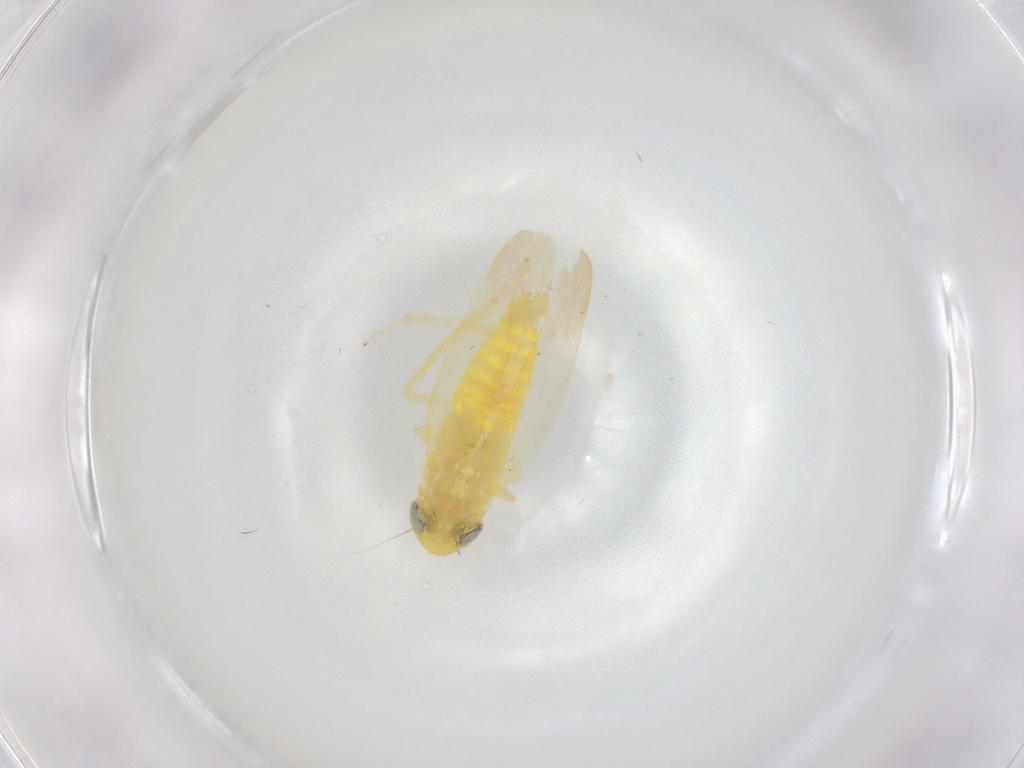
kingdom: Animalia
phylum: Arthropoda
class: Insecta
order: Hemiptera
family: Cicadellidae
